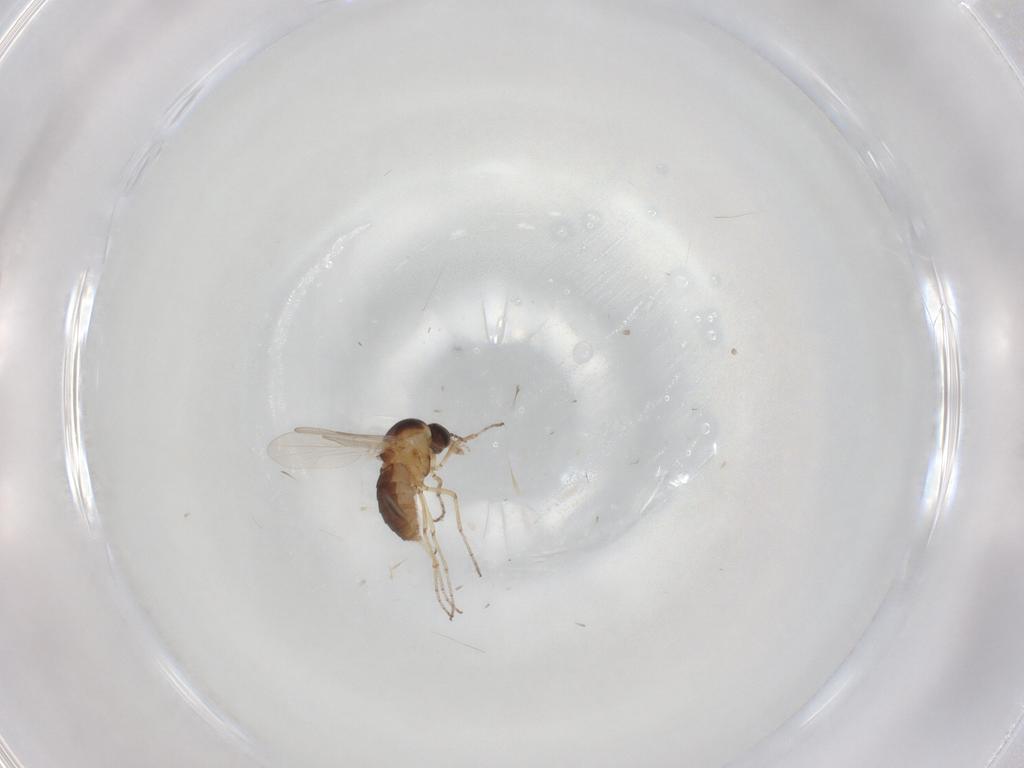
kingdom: Animalia
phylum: Arthropoda
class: Insecta
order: Diptera
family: Ceratopogonidae
